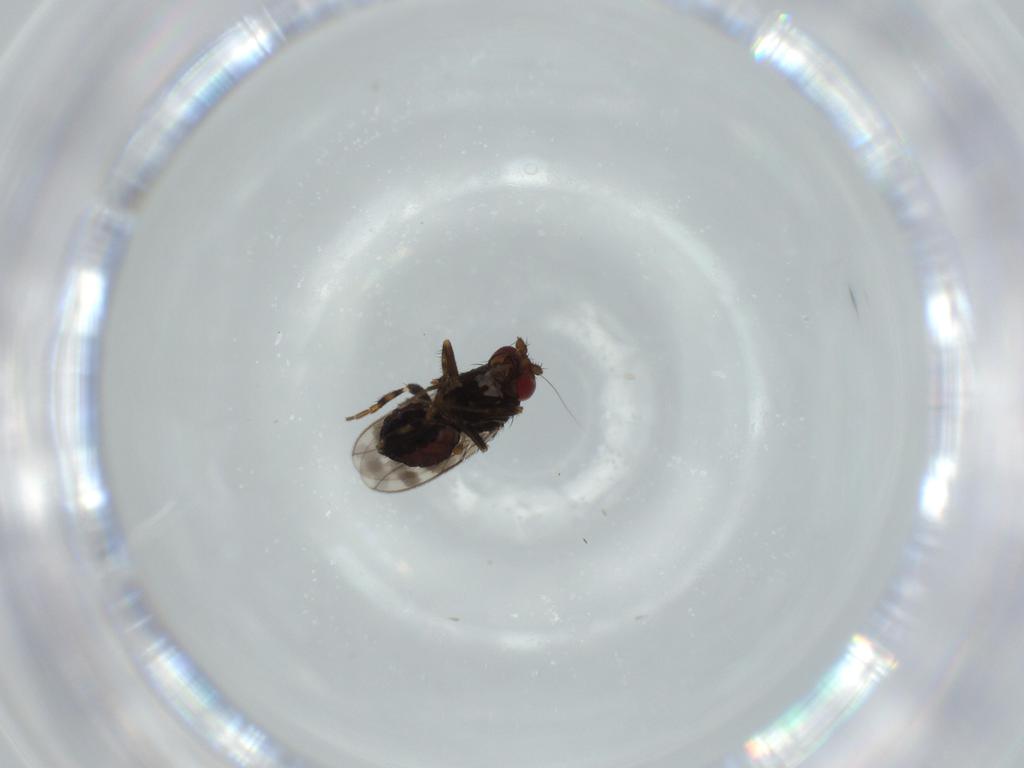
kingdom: Animalia
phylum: Arthropoda
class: Insecta
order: Diptera
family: Sphaeroceridae
